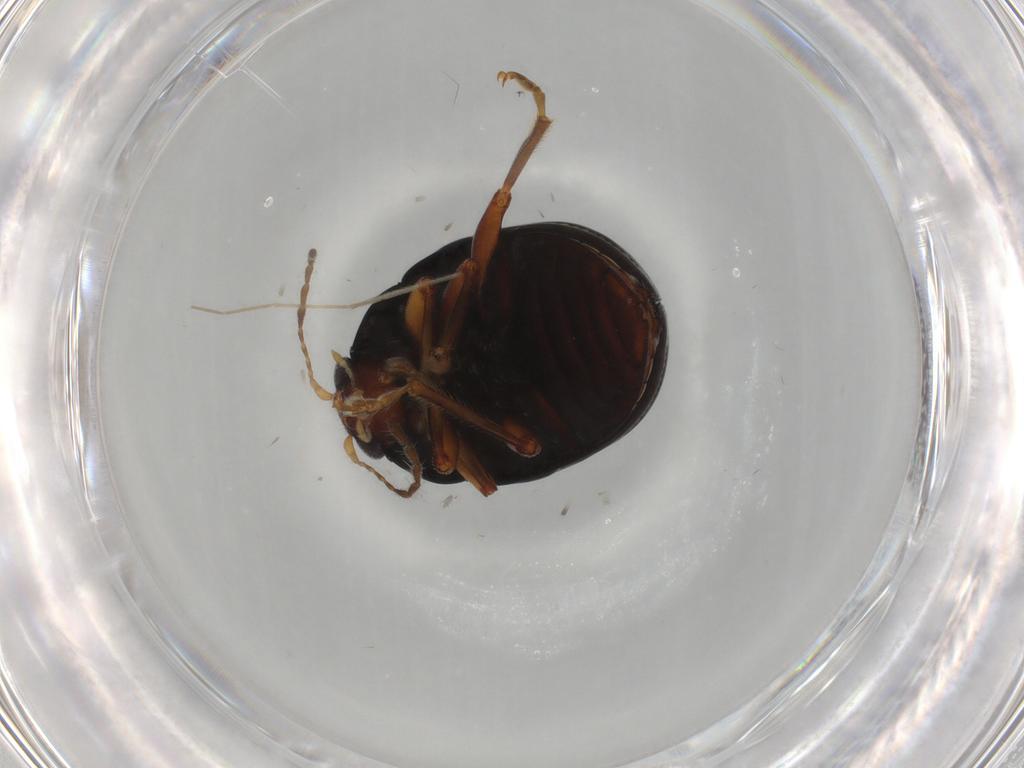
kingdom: Animalia
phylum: Arthropoda
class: Insecta
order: Coleoptera
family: Chrysomelidae
